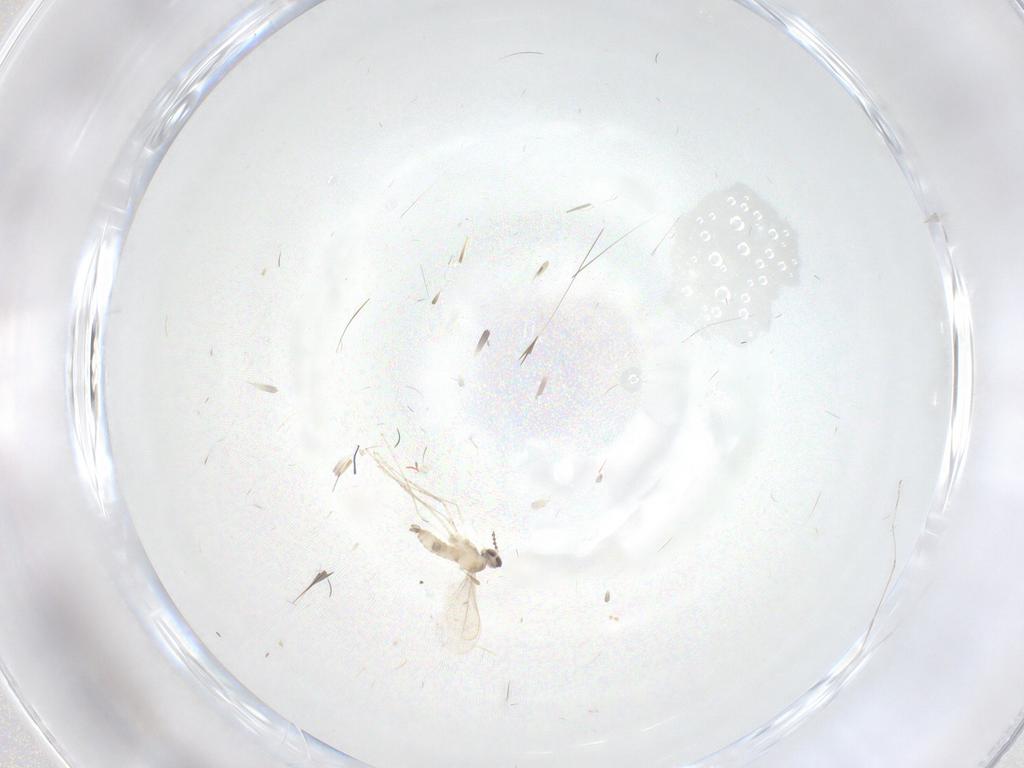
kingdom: Animalia
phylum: Arthropoda
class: Insecta
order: Diptera
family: Cecidomyiidae
